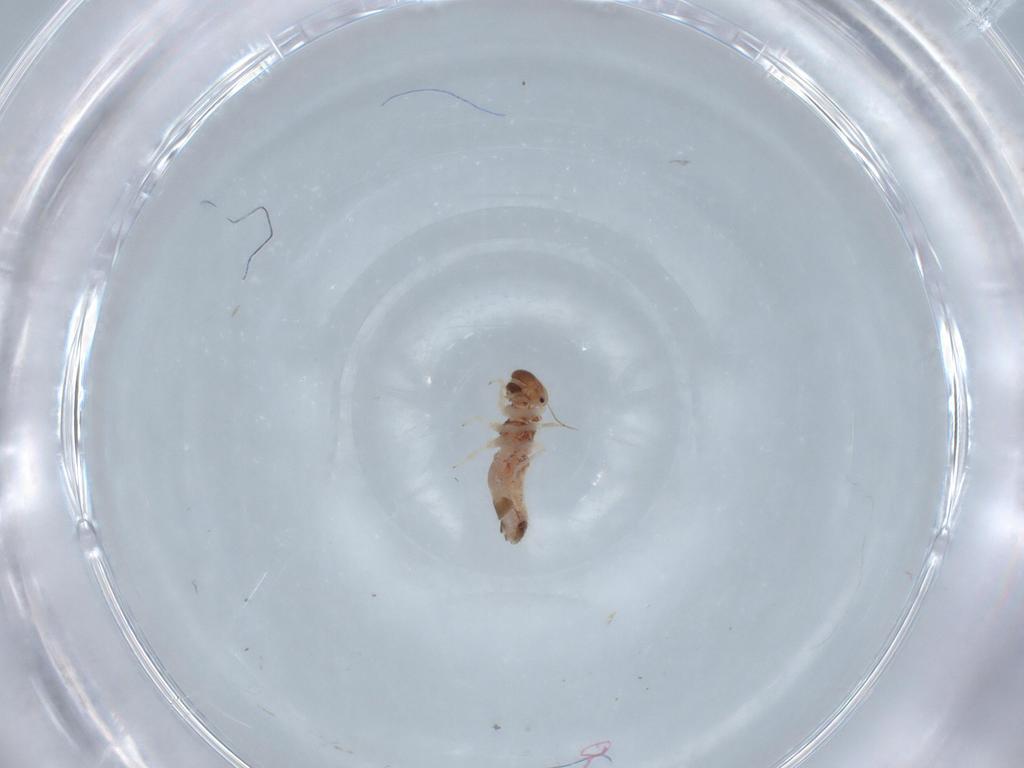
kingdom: Animalia
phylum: Arthropoda
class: Insecta
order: Psocodea
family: Archipsocidae
